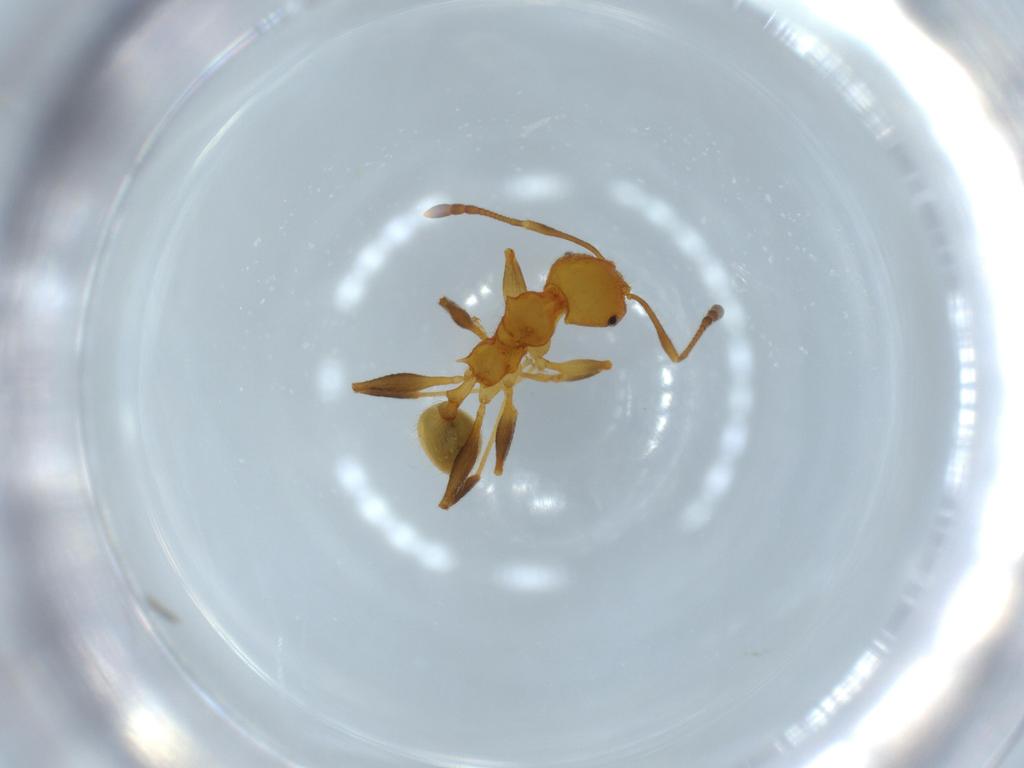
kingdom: Animalia
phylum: Arthropoda
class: Insecta
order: Hymenoptera
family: Formicidae
